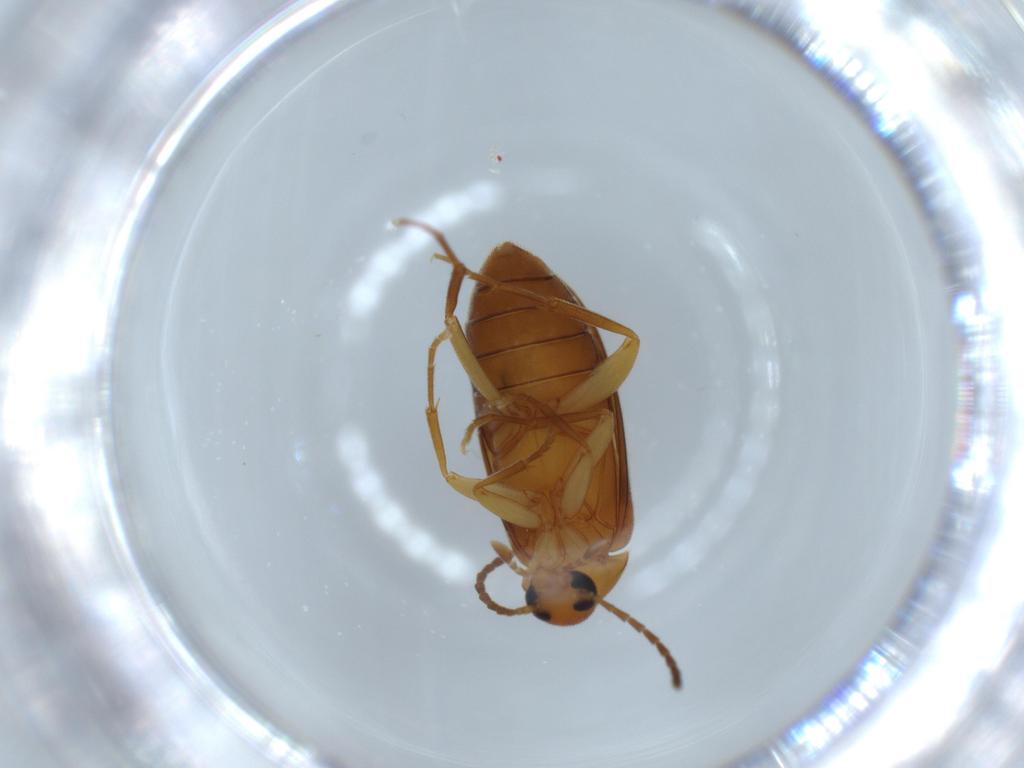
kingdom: Animalia
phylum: Arthropoda
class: Insecta
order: Coleoptera
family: Scraptiidae
